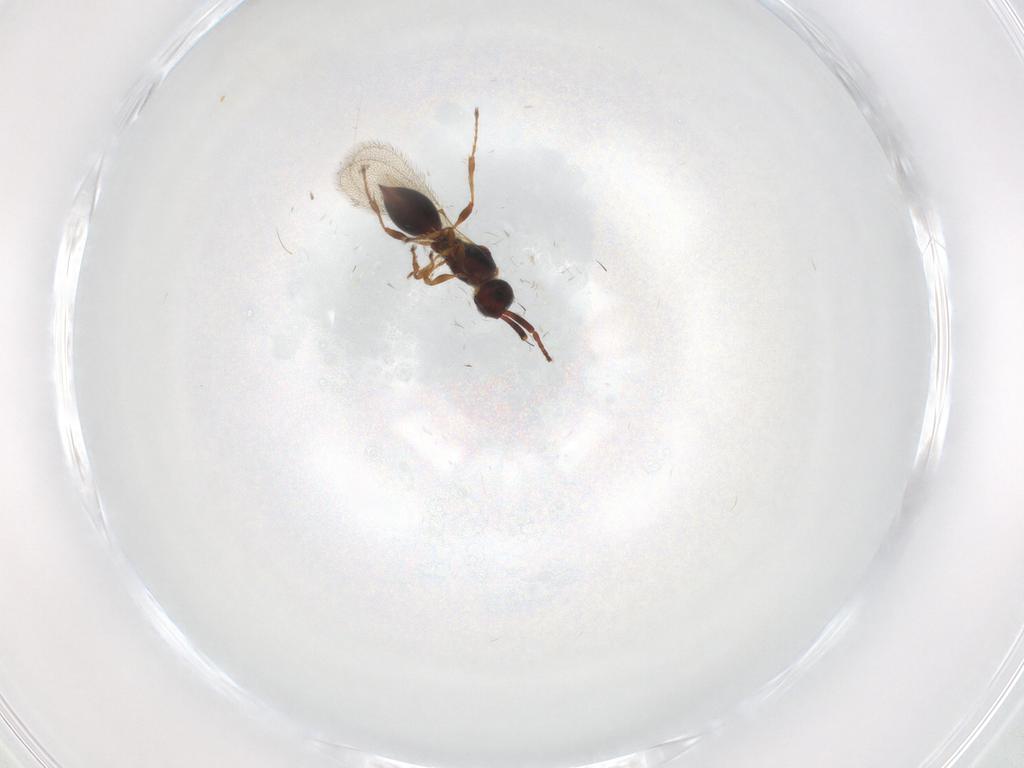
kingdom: Animalia
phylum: Arthropoda
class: Insecta
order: Hymenoptera
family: Diapriidae
